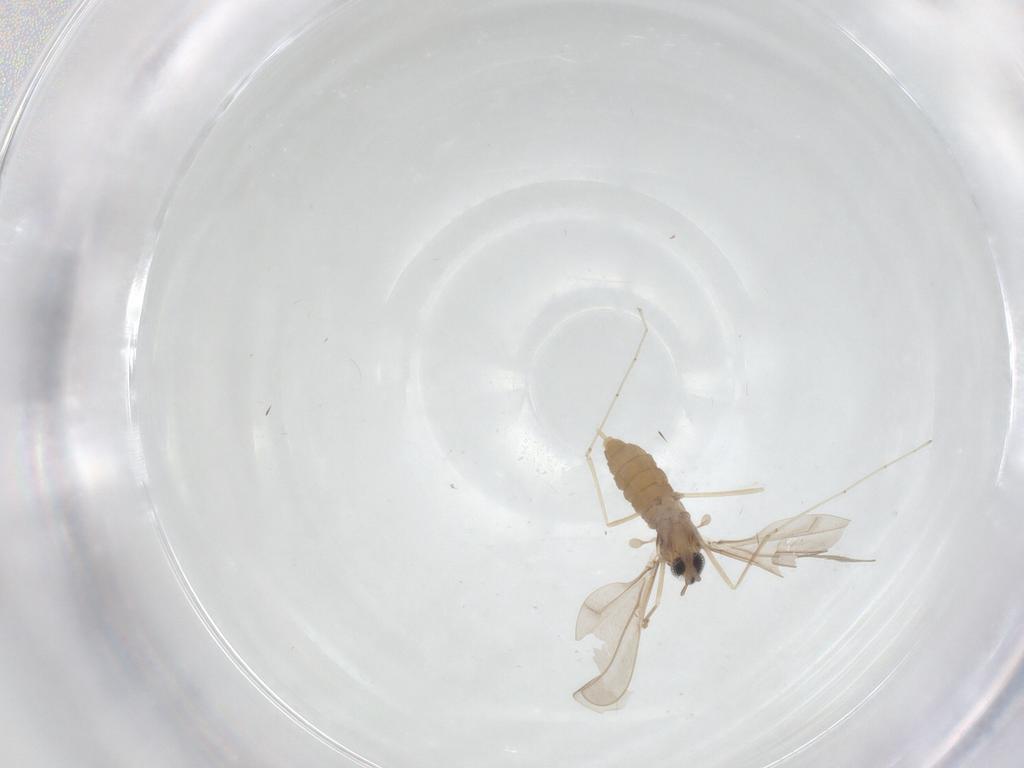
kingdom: Animalia
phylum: Arthropoda
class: Insecta
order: Diptera
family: Cecidomyiidae
